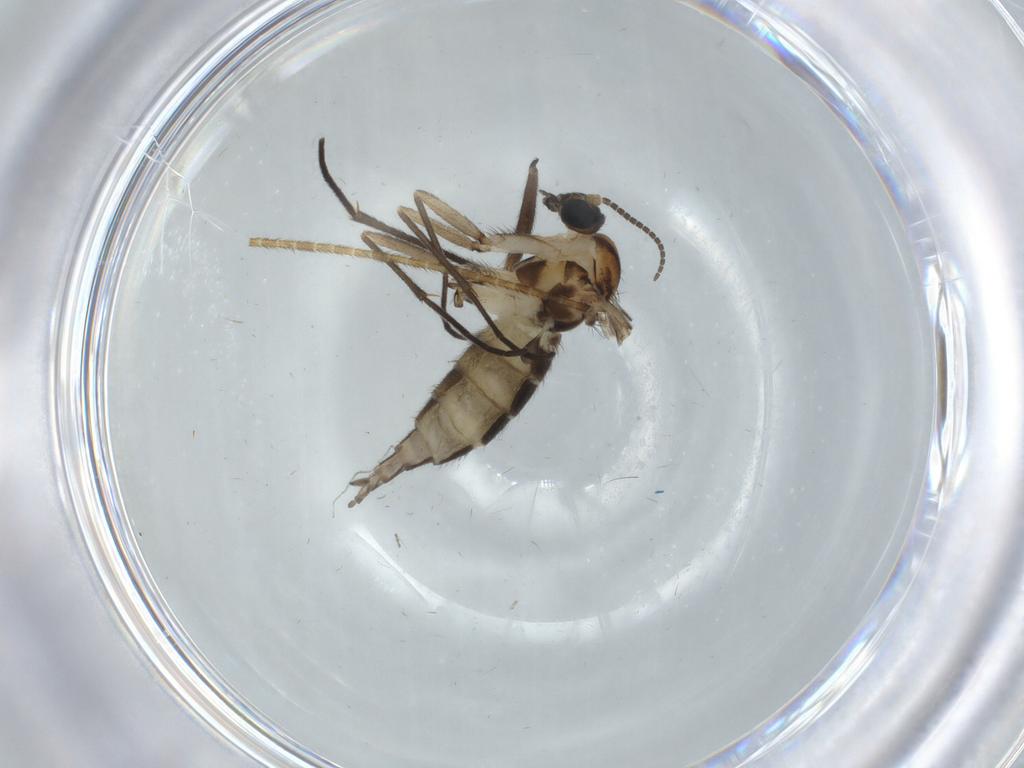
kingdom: Animalia
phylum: Arthropoda
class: Insecta
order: Diptera
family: Sciaridae
